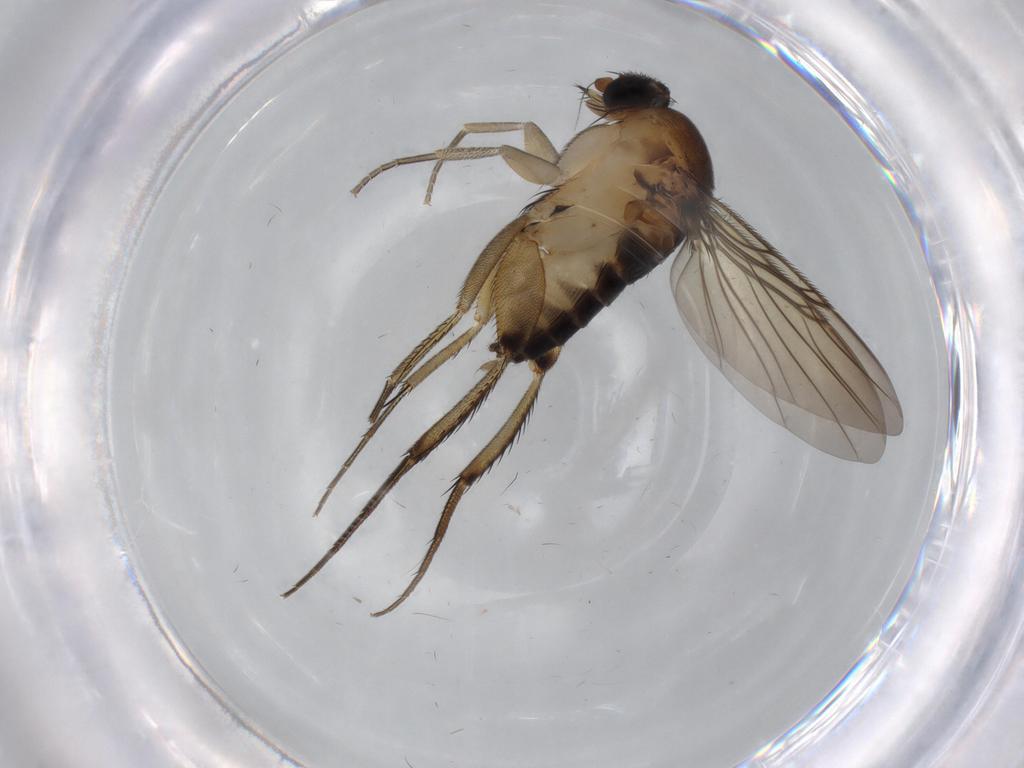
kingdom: Animalia
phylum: Arthropoda
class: Insecta
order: Diptera
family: Phoridae
